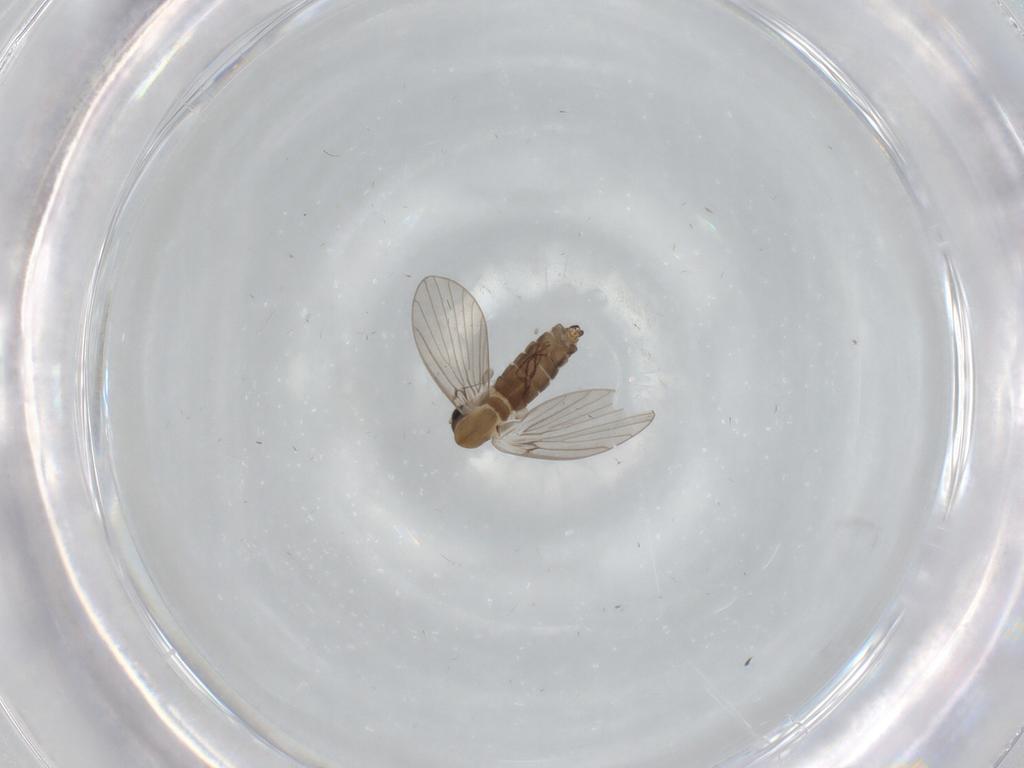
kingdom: Animalia
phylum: Arthropoda
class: Insecta
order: Diptera
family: Psychodidae
